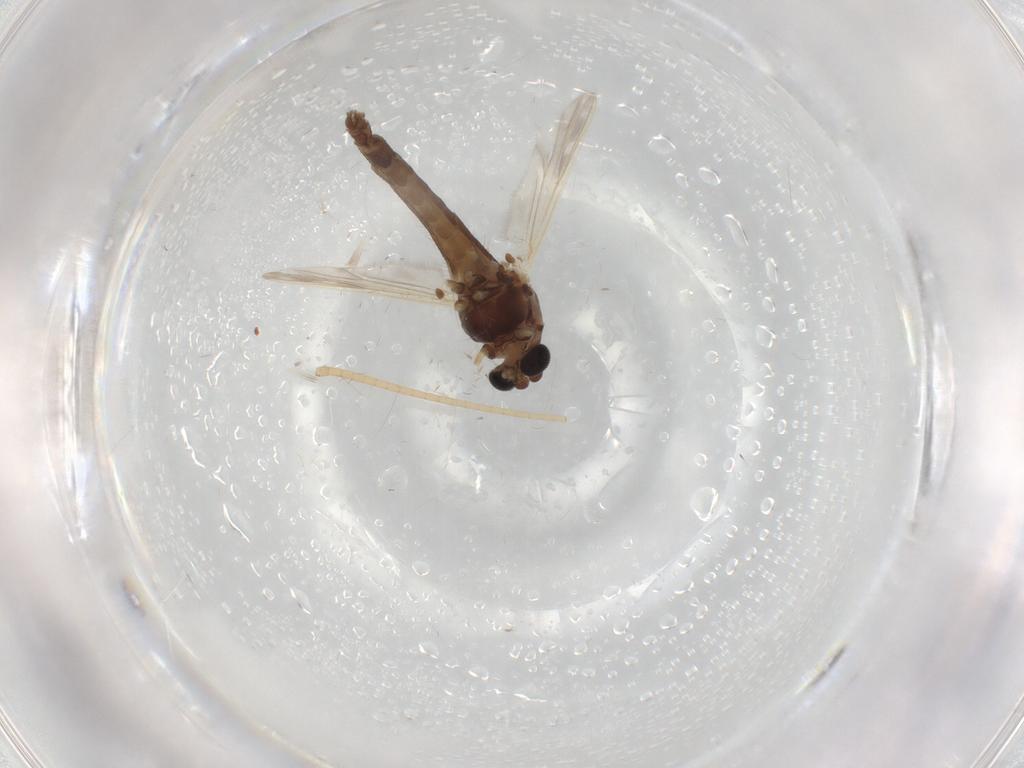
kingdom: Animalia
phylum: Arthropoda
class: Insecta
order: Diptera
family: Chironomidae
